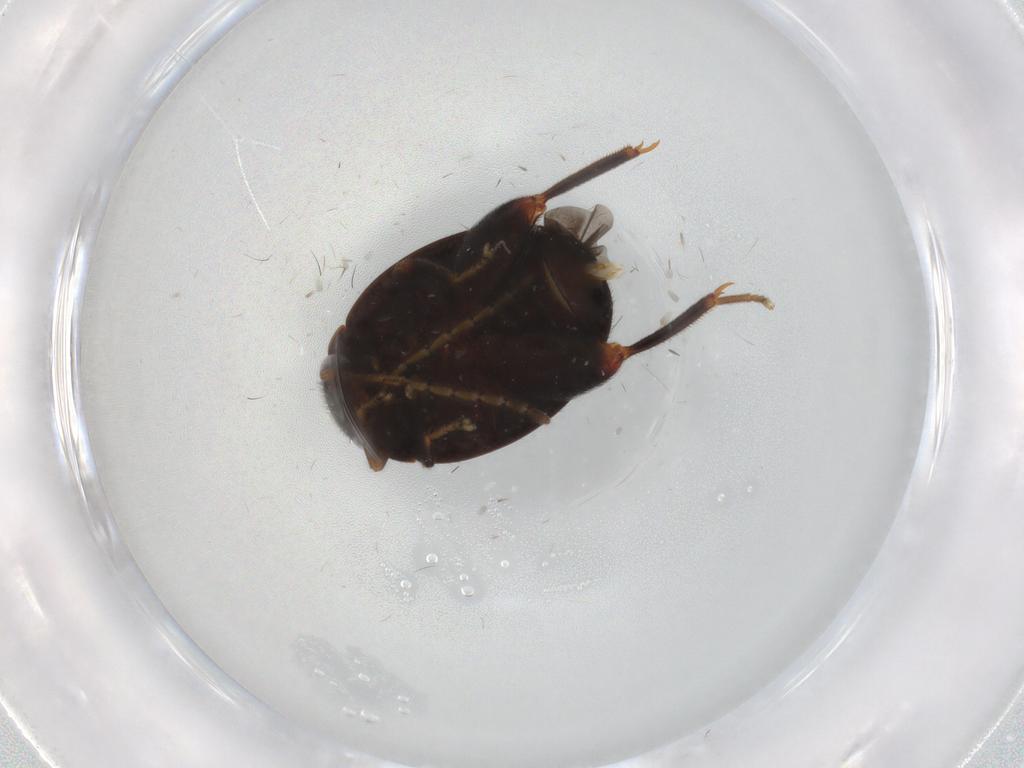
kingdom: Animalia
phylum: Arthropoda
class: Insecta
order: Coleoptera
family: Scirtidae
